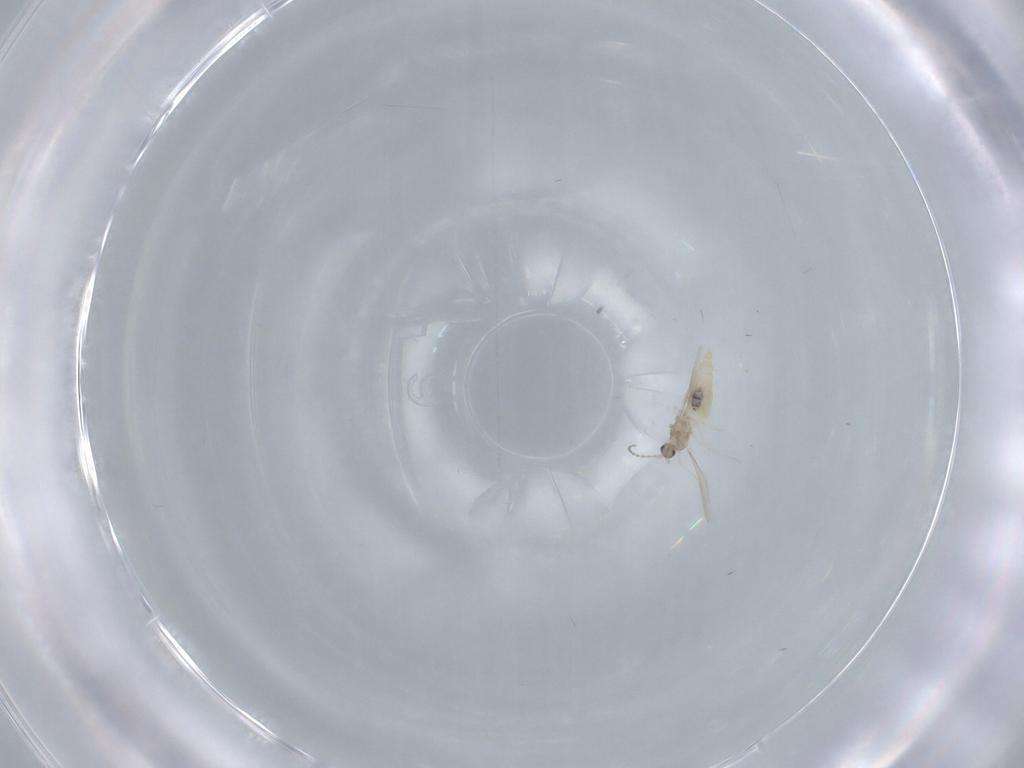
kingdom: Animalia
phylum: Arthropoda
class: Insecta
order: Diptera
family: Cecidomyiidae
